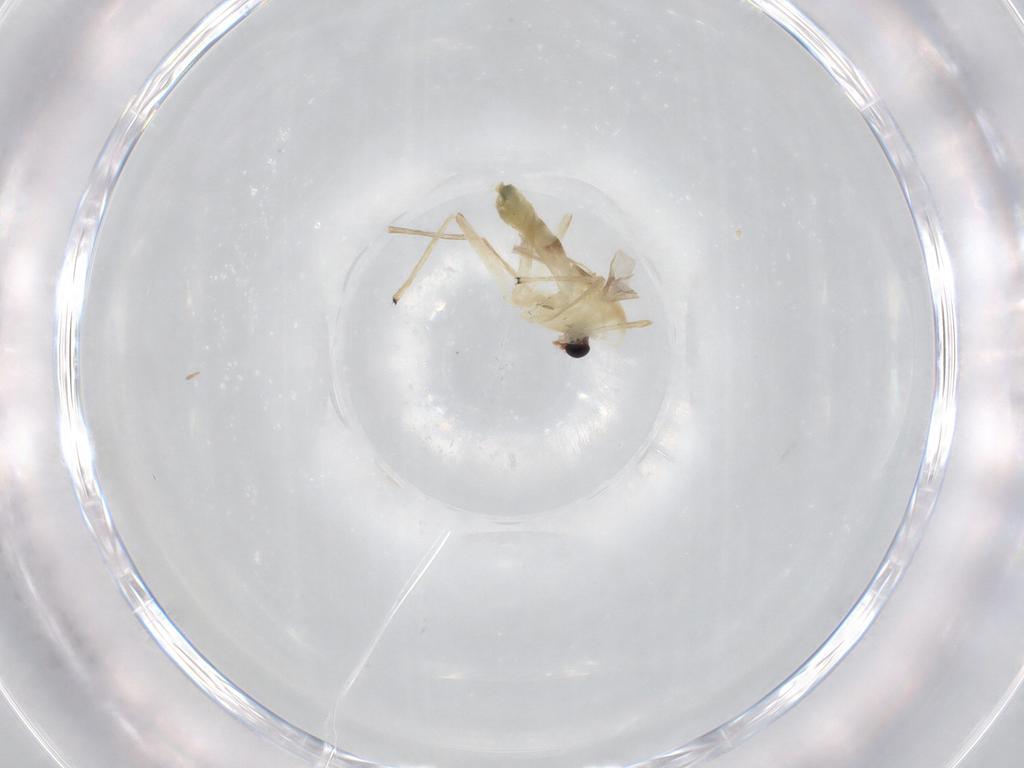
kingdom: Animalia
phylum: Arthropoda
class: Insecta
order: Diptera
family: Chironomidae
